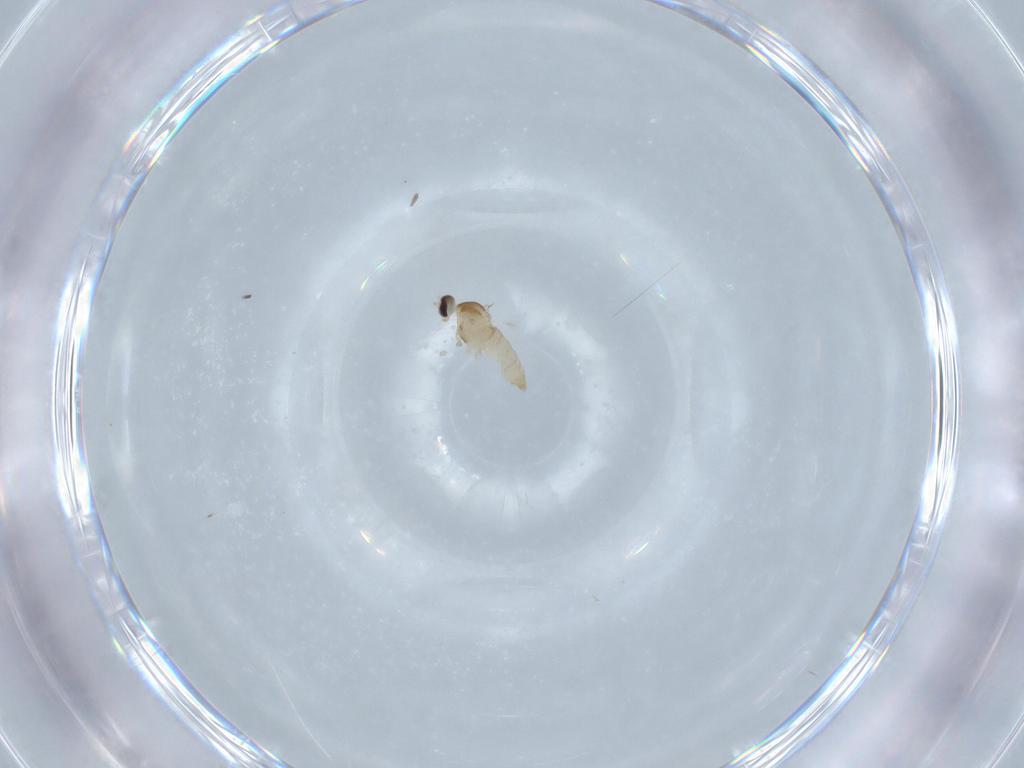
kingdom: Animalia
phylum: Arthropoda
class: Insecta
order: Diptera
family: Cecidomyiidae
